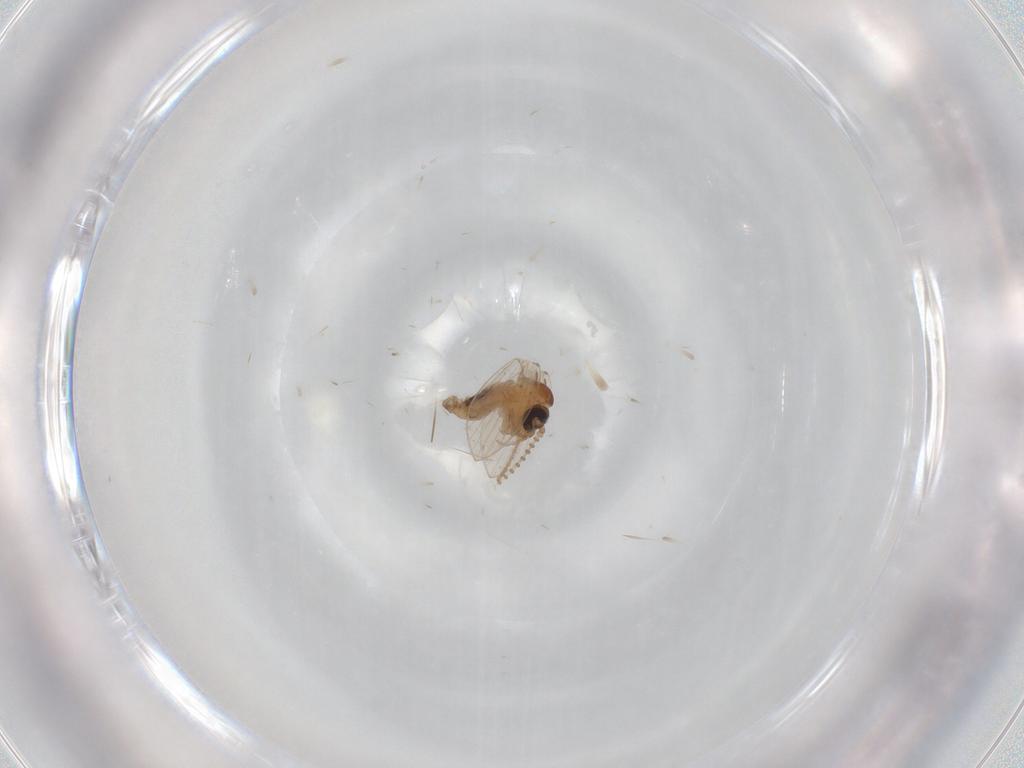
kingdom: Animalia
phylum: Arthropoda
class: Insecta
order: Diptera
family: Psychodidae
